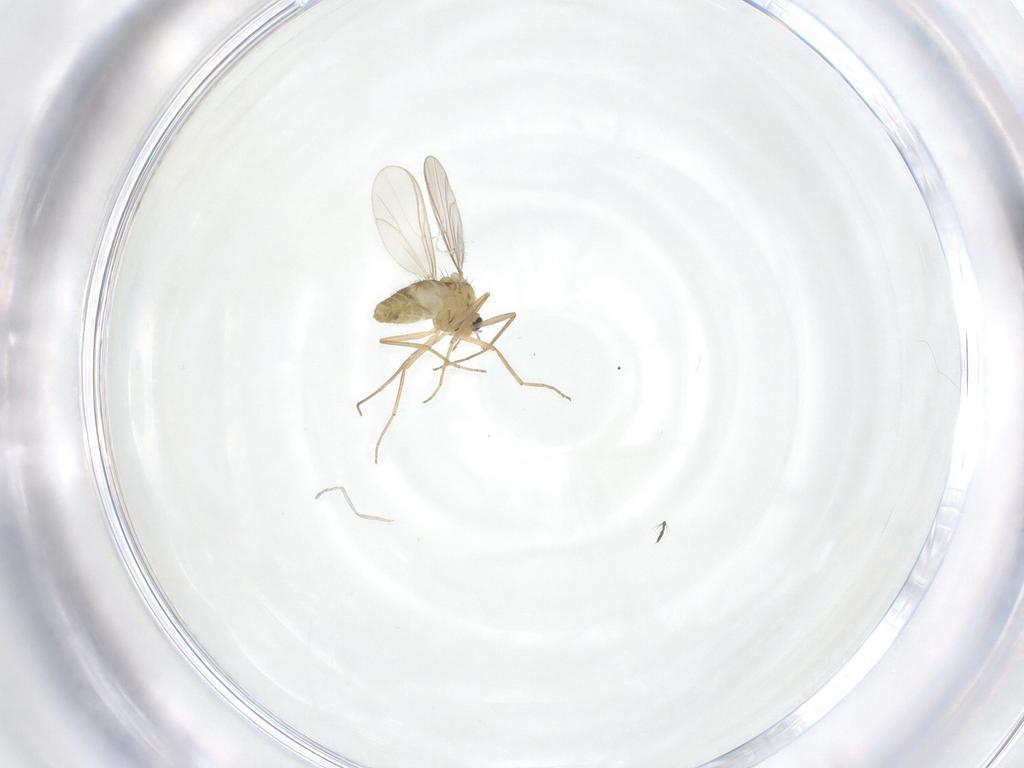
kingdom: Animalia
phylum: Arthropoda
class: Insecta
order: Diptera
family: Cecidomyiidae
